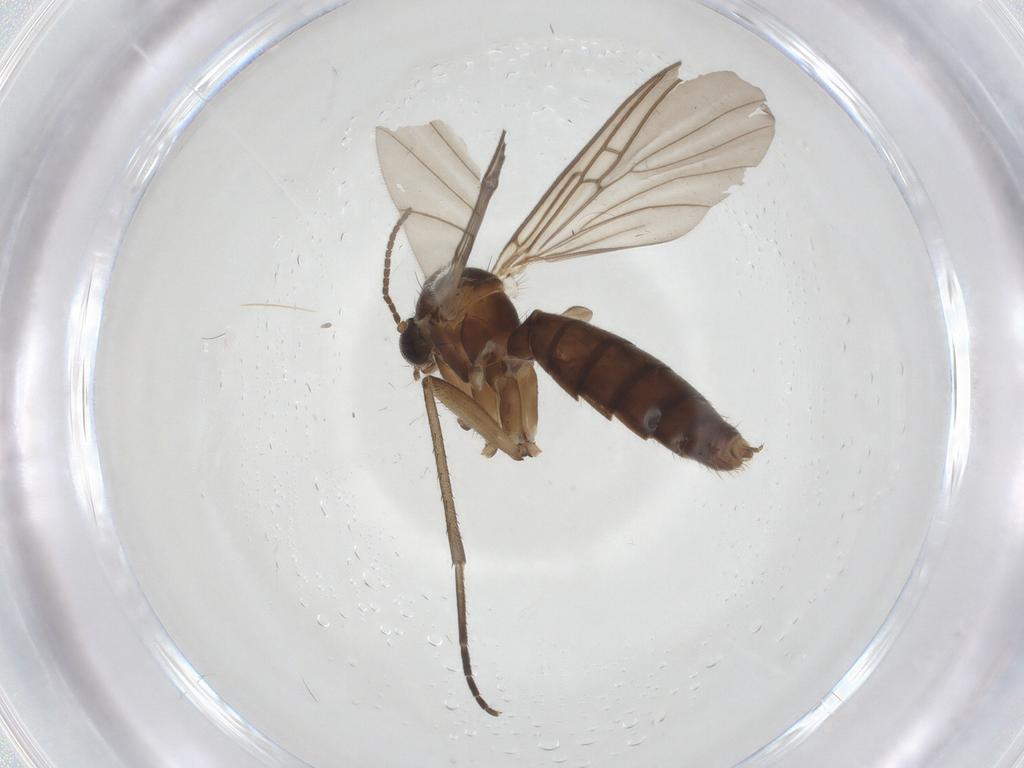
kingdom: Animalia
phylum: Arthropoda
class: Insecta
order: Diptera
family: Mycetophilidae
